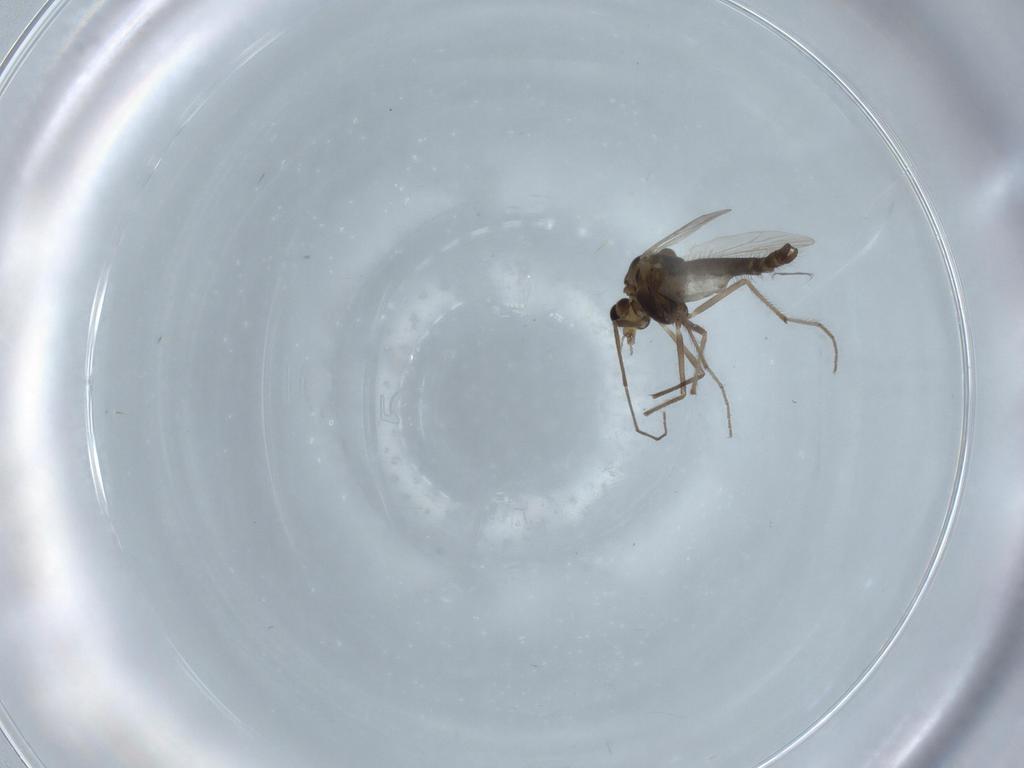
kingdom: Animalia
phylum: Arthropoda
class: Insecta
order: Diptera
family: Chironomidae
